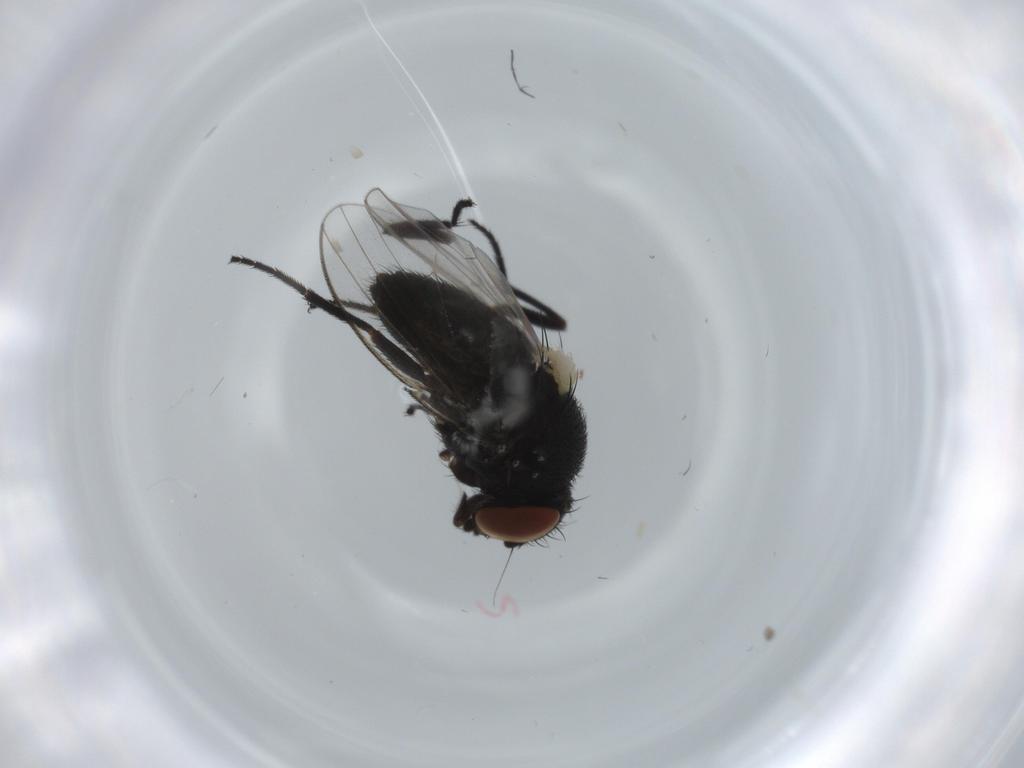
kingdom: Animalia
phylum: Arthropoda
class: Insecta
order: Diptera
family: Milichiidae
